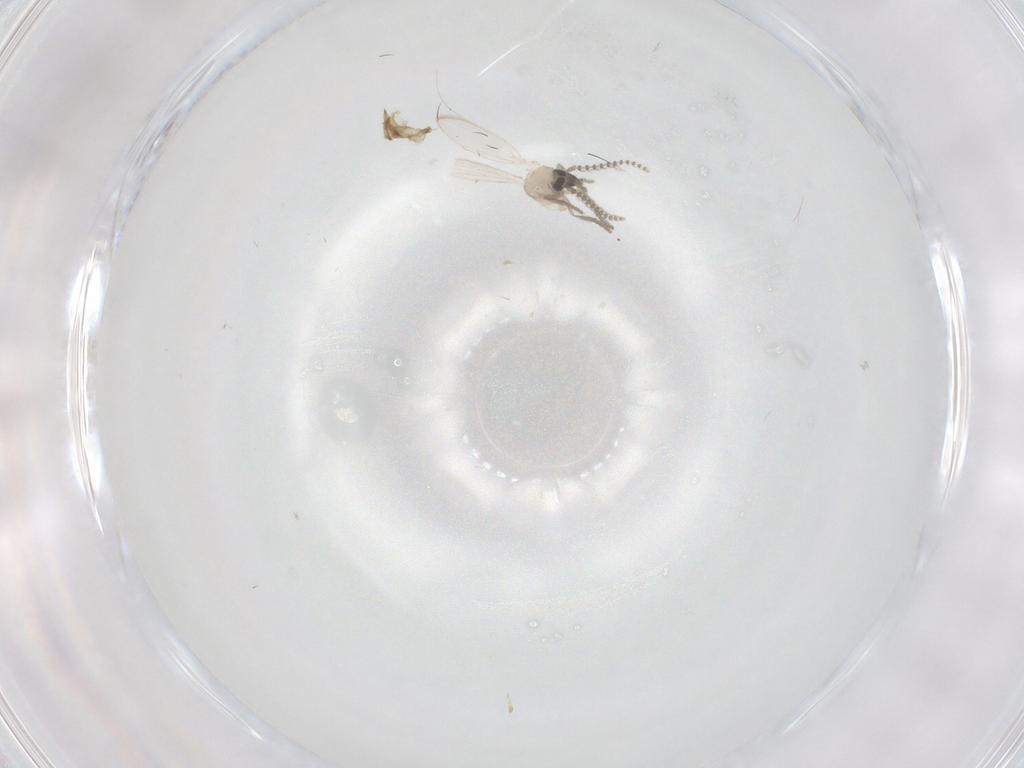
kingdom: Animalia
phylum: Arthropoda
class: Insecta
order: Diptera
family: Psychodidae
